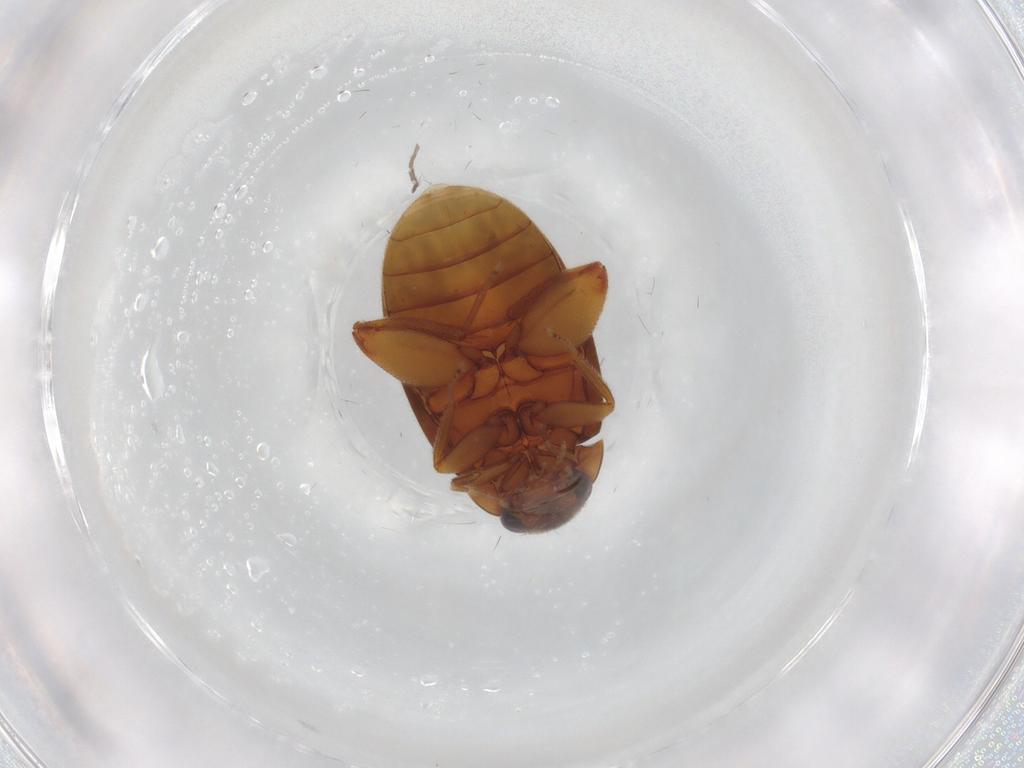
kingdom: Animalia
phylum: Arthropoda
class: Insecta
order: Coleoptera
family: Scirtidae
